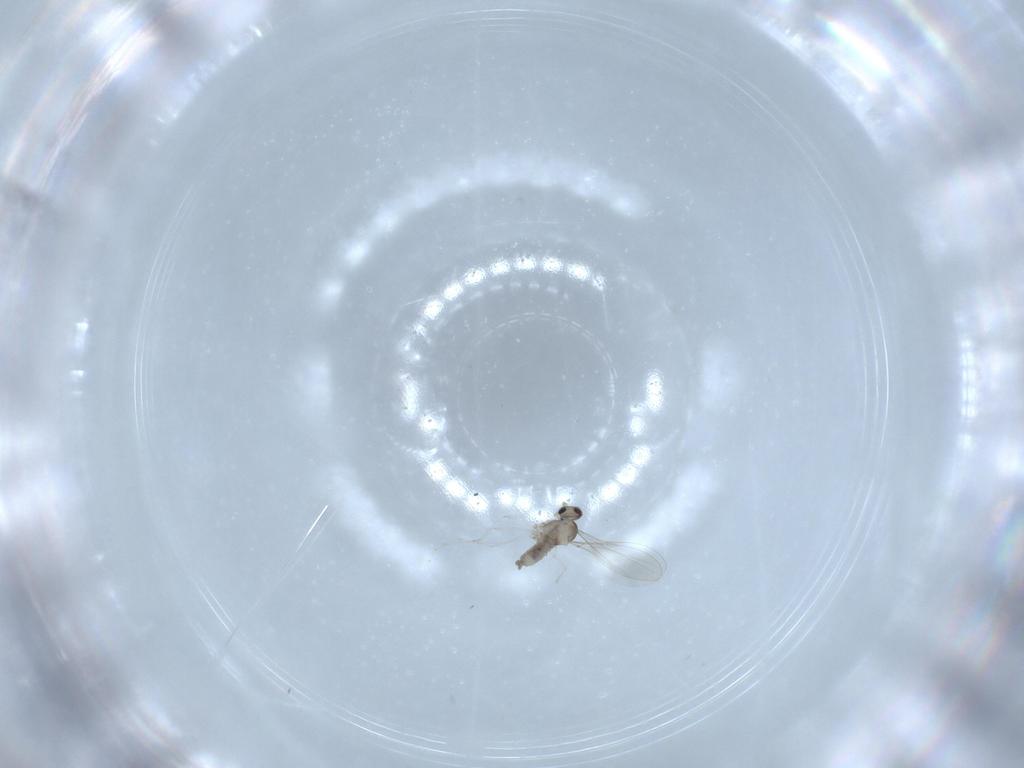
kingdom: Animalia
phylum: Arthropoda
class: Insecta
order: Diptera
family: Cecidomyiidae
